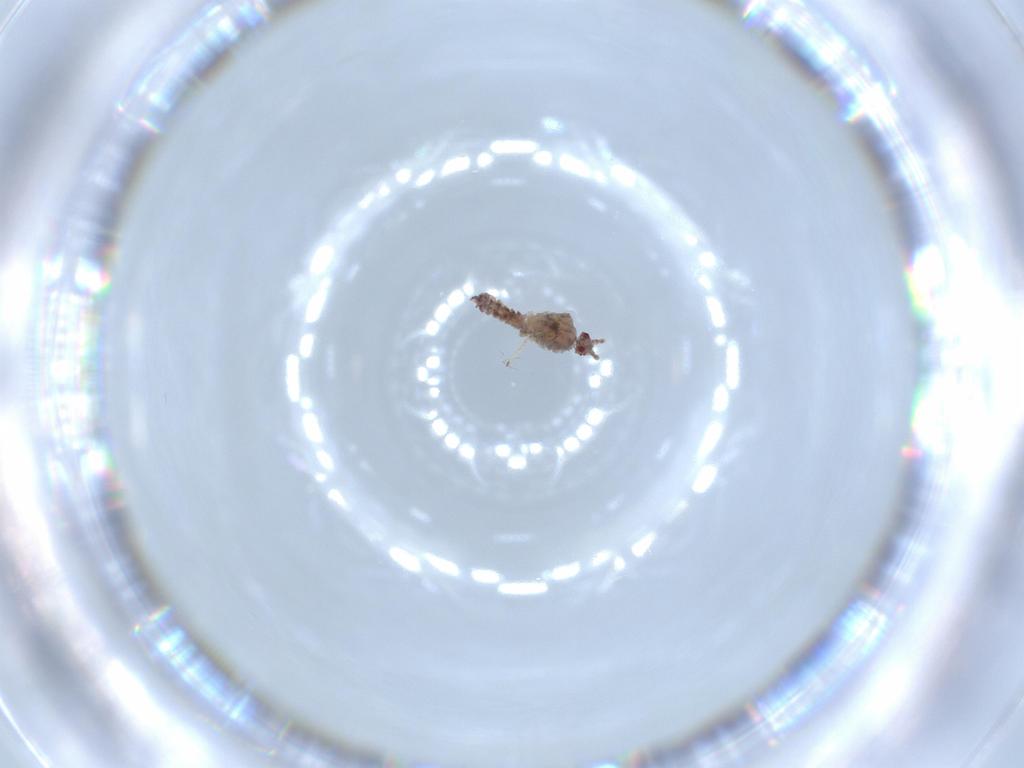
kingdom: Animalia
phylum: Arthropoda
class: Insecta
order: Hemiptera
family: Pseudococcidae
